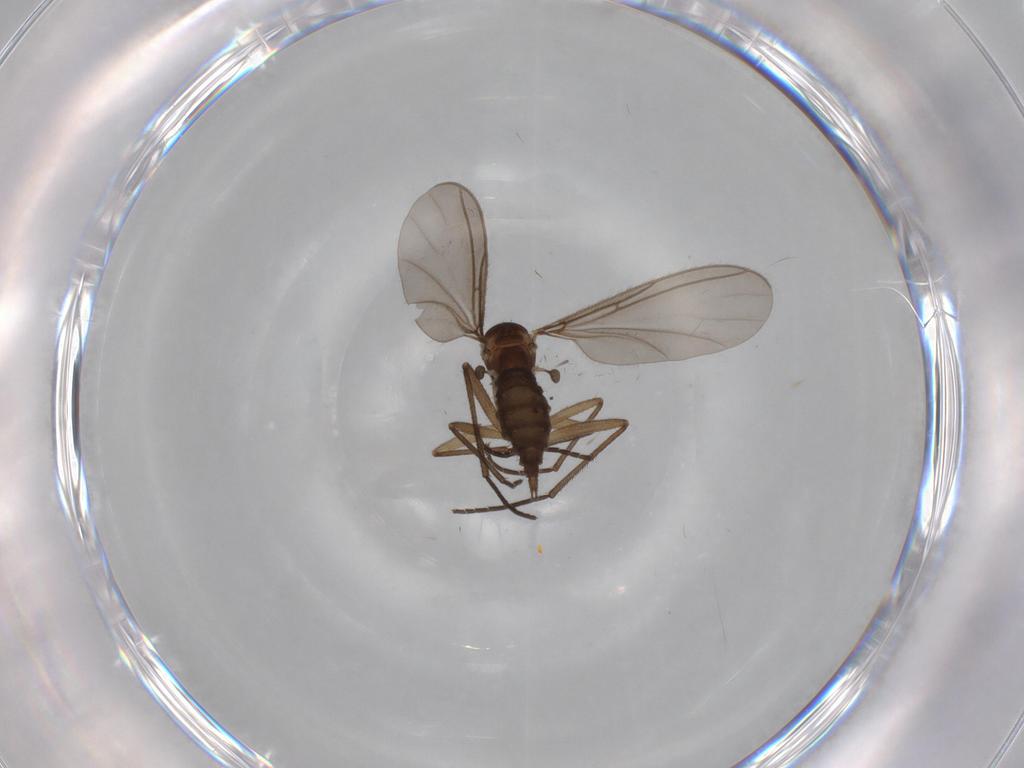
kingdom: Animalia
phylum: Arthropoda
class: Insecta
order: Diptera
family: Sciaridae
